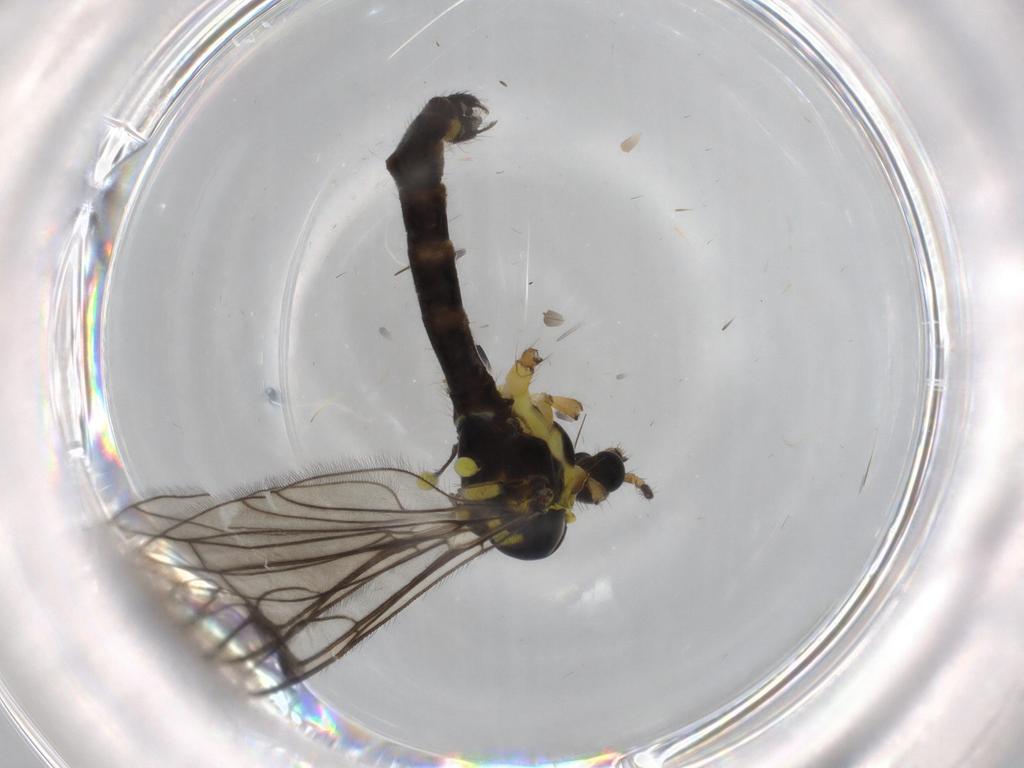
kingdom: Animalia
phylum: Arthropoda
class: Insecta
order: Diptera
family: Limoniidae
